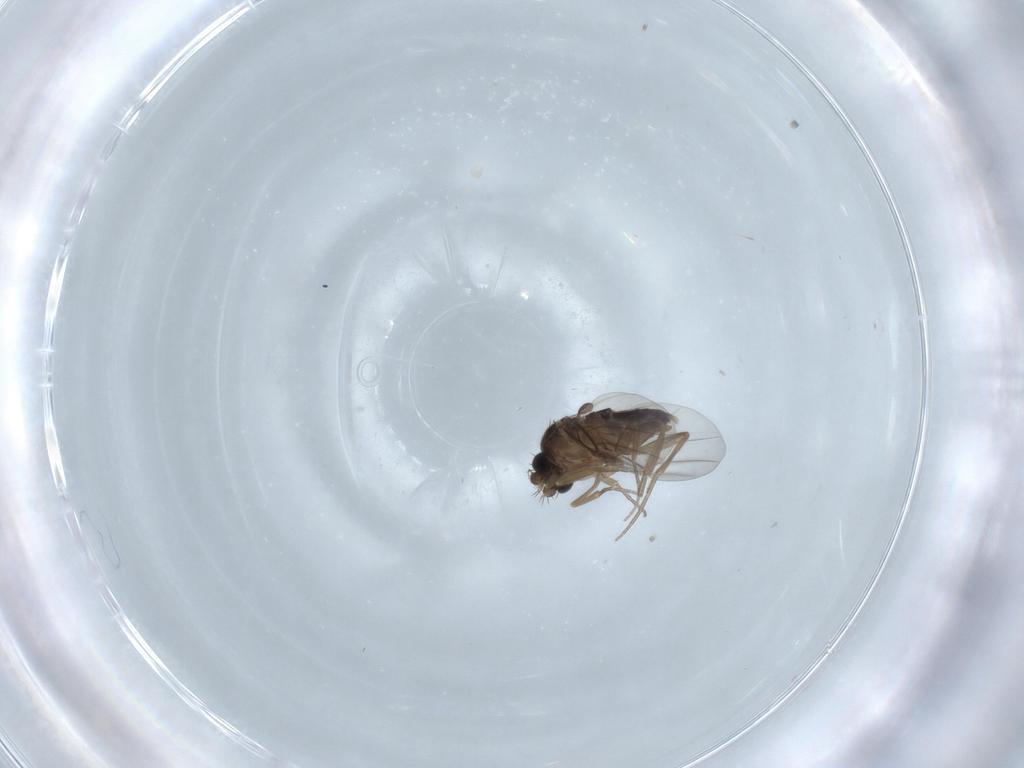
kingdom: Animalia
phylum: Arthropoda
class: Insecta
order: Diptera
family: Phoridae
